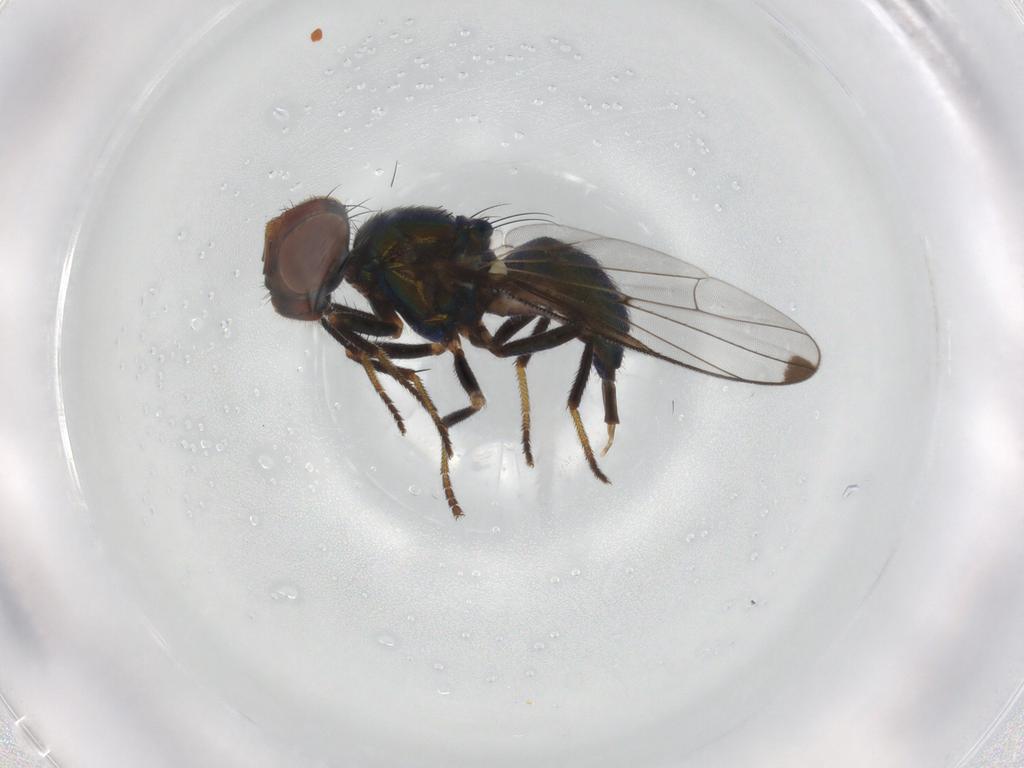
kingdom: Animalia
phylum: Arthropoda
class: Insecta
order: Diptera
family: Platystomatidae
